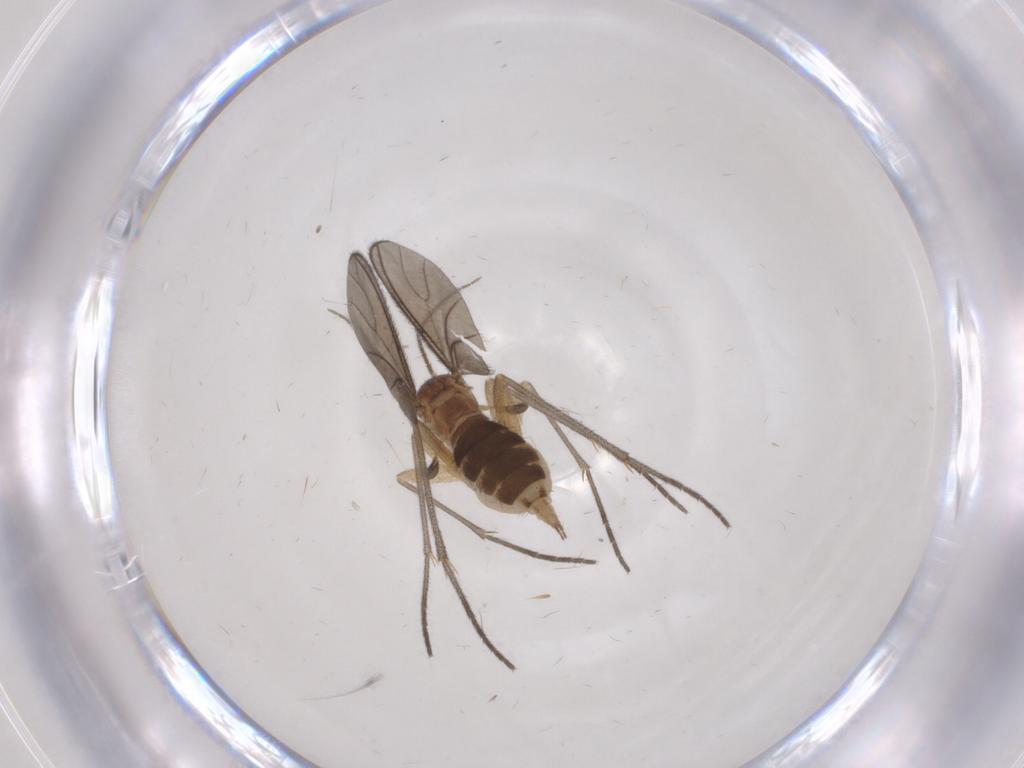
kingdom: Animalia
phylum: Arthropoda
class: Insecta
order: Diptera
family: Sciaridae
